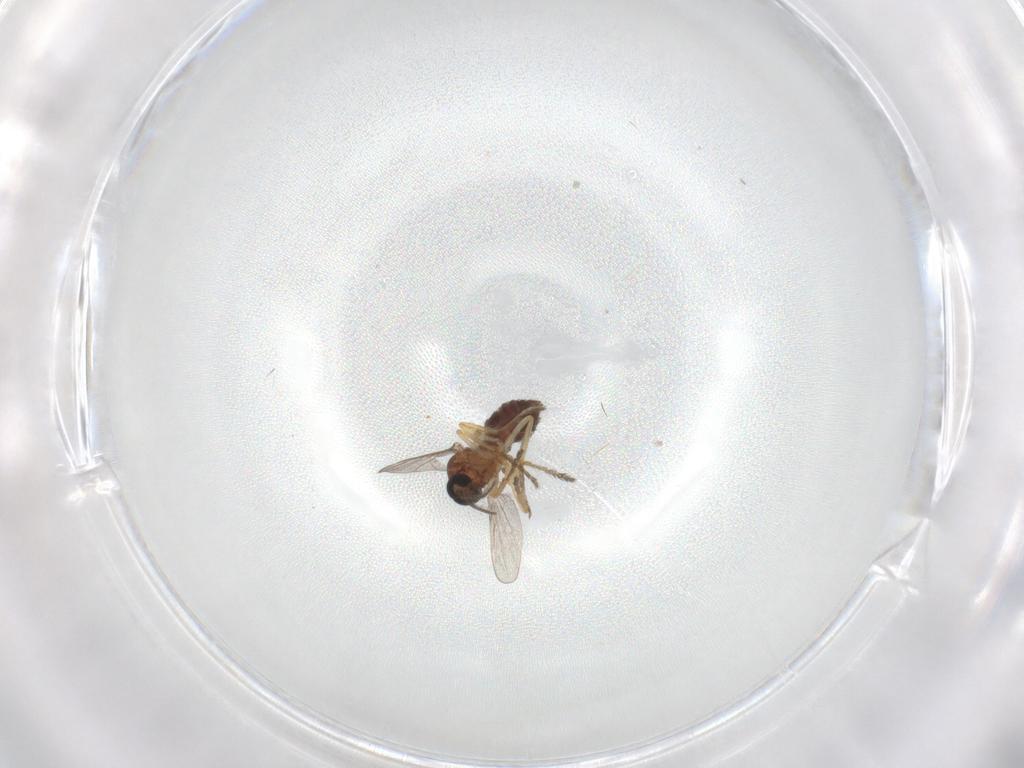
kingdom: Animalia
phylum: Arthropoda
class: Insecta
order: Diptera
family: Ceratopogonidae
